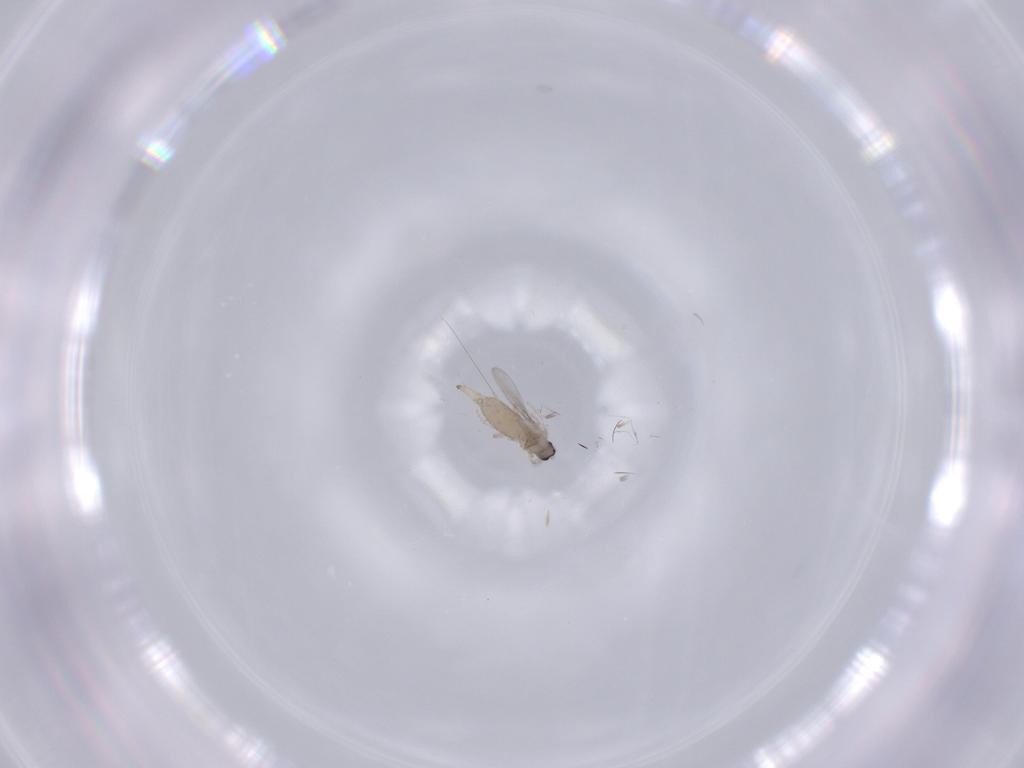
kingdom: Animalia
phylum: Arthropoda
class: Insecta
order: Diptera
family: Cecidomyiidae
